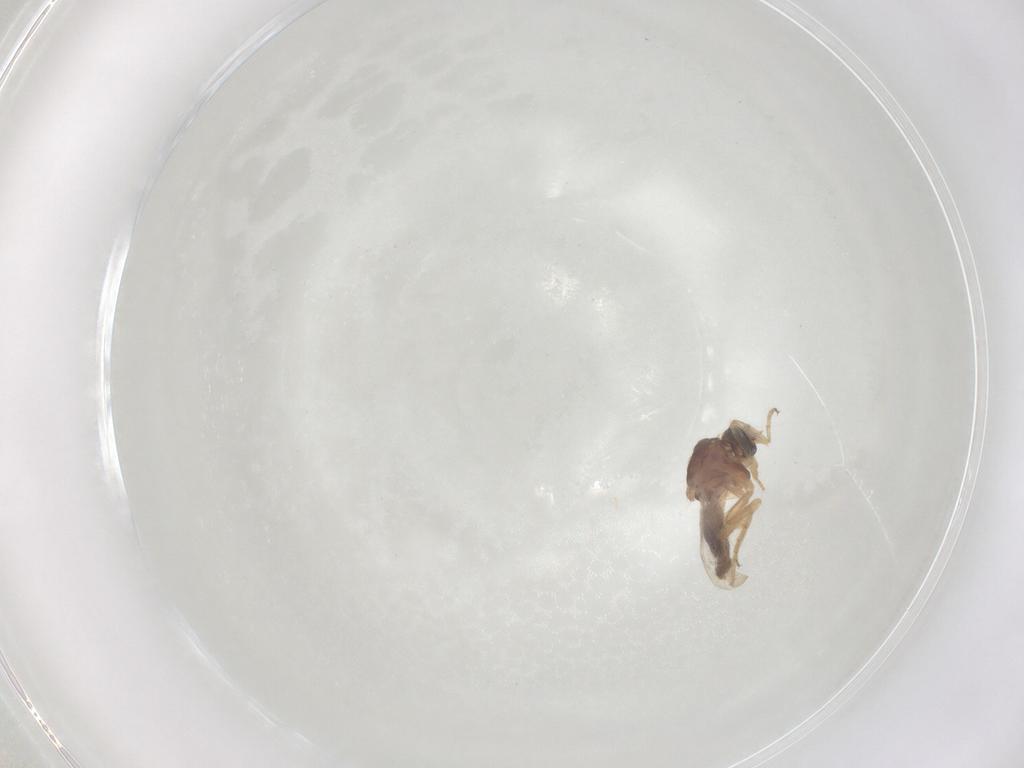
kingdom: Animalia
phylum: Arthropoda
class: Insecta
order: Diptera
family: Ceratopogonidae
